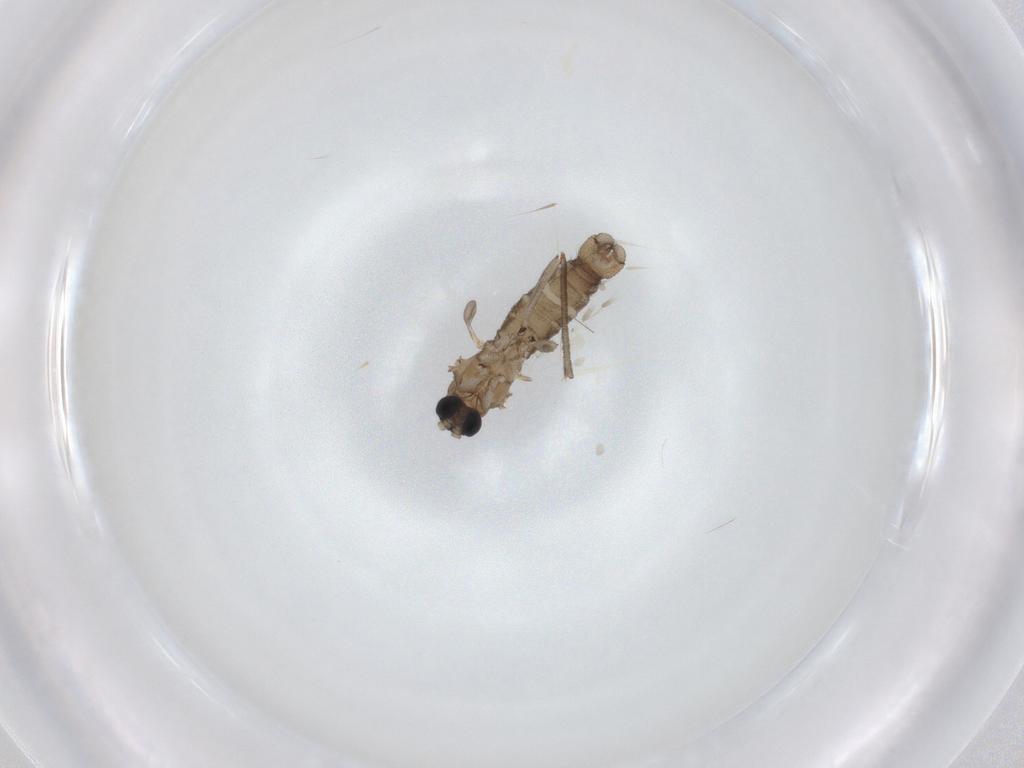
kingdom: Animalia
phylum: Arthropoda
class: Insecta
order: Diptera
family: Sciaridae
